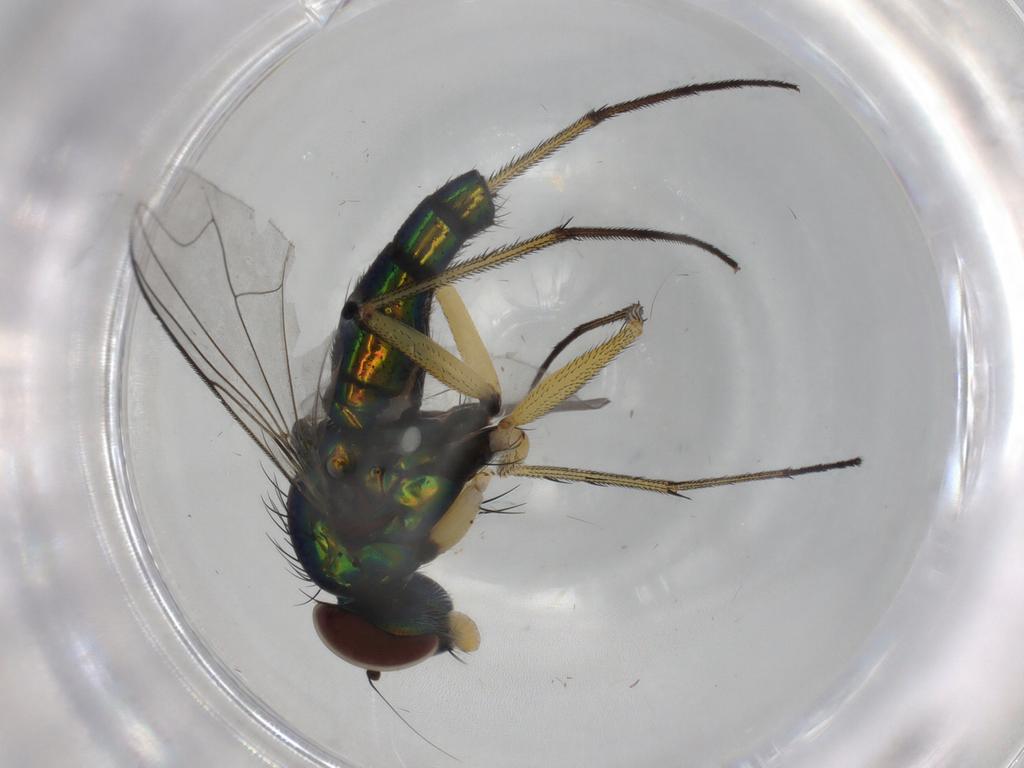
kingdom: Animalia
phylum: Arthropoda
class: Insecta
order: Diptera
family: Dolichopodidae
